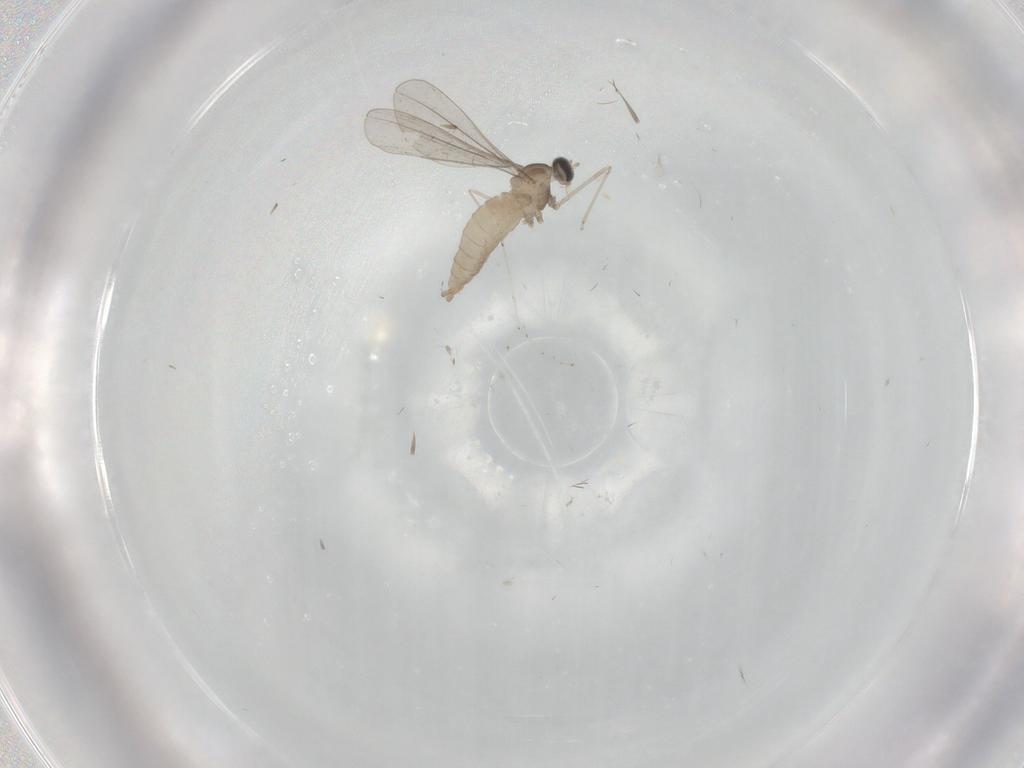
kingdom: Animalia
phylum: Arthropoda
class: Insecta
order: Diptera
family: Cecidomyiidae
